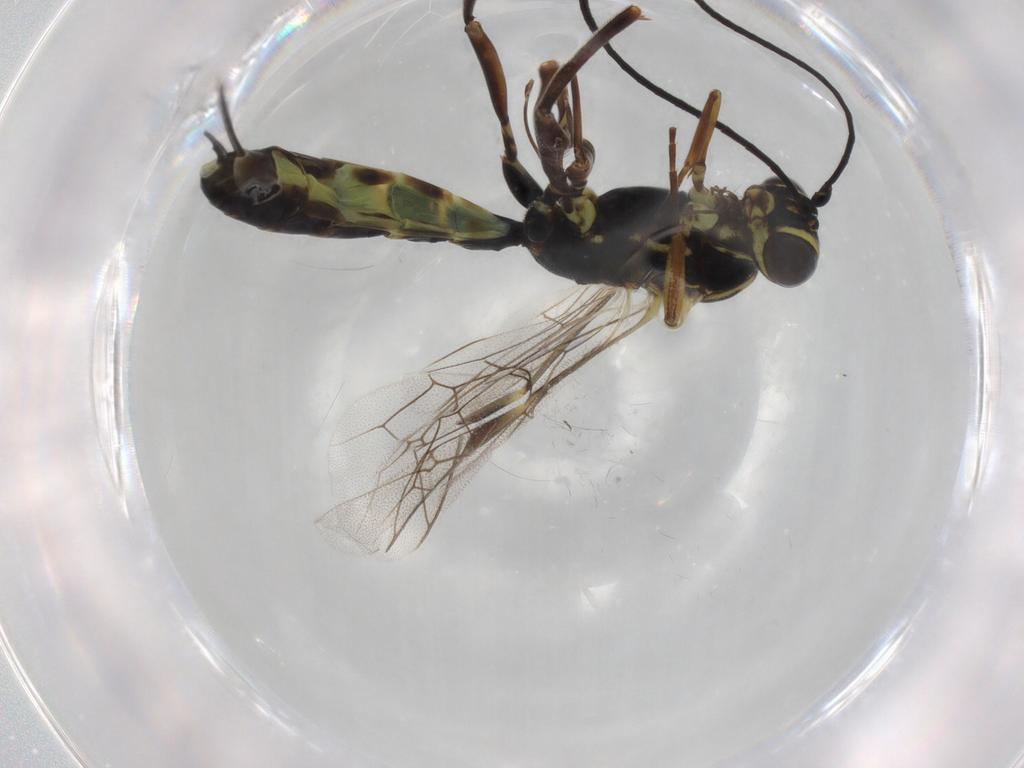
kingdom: Animalia
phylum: Arthropoda
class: Insecta
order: Hymenoptera
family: Ichneumonidae
